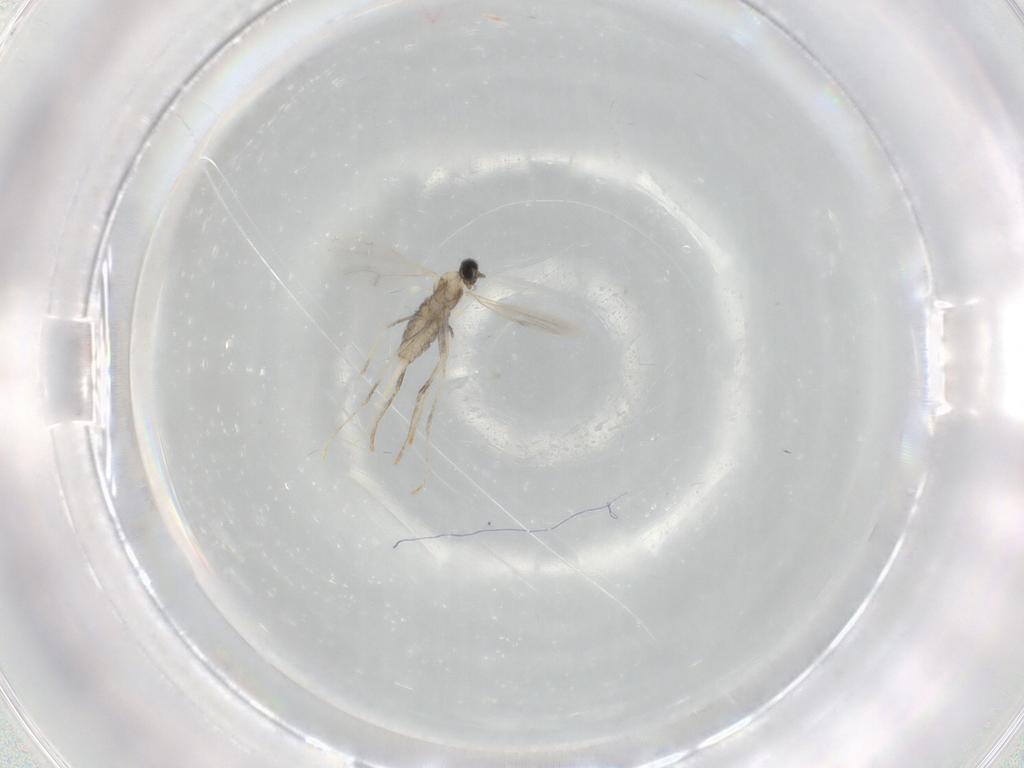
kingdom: Animalia
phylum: Arthropoda
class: Insecta
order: Diptera
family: Cecidomyiidae
